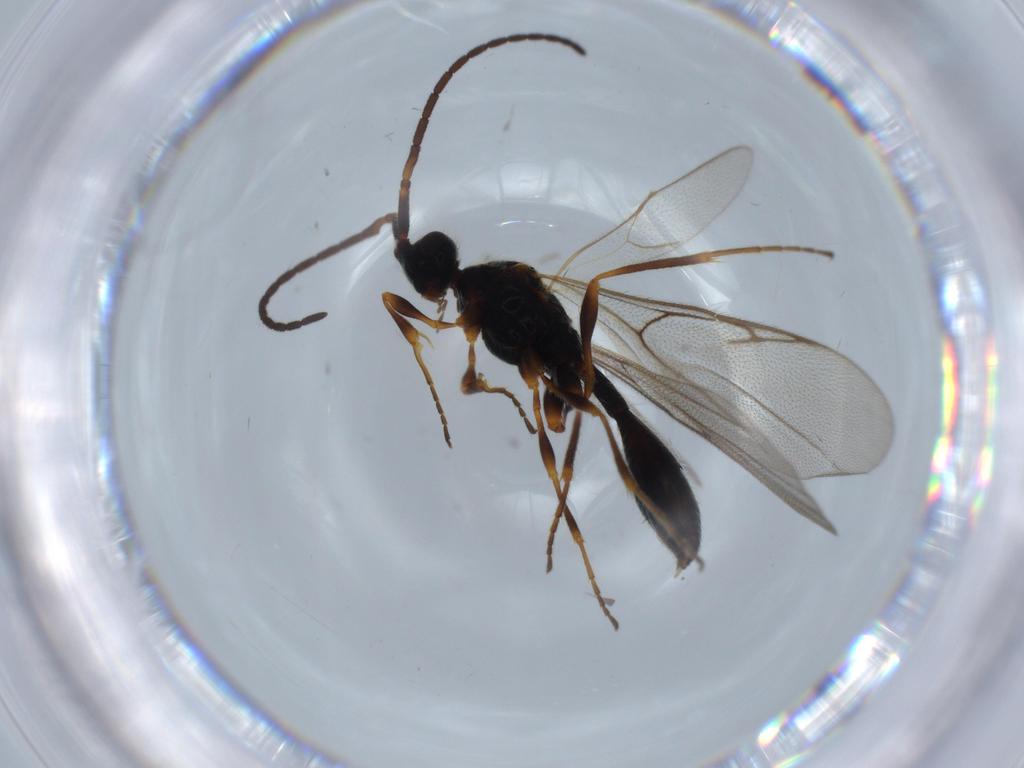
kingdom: Animalia
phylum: Arthropoda
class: Insecta
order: Hymenoptera
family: Diapriidae
